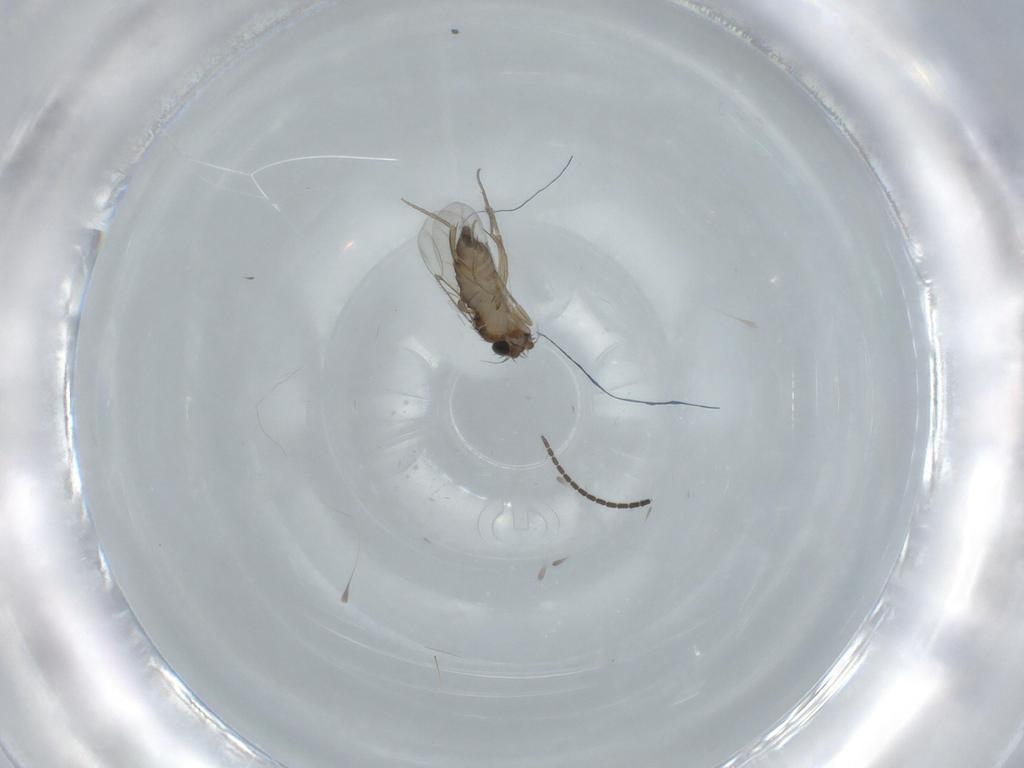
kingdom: Animalia
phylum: Arthropoda
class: Insecta
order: Diptera
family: Phoridae
